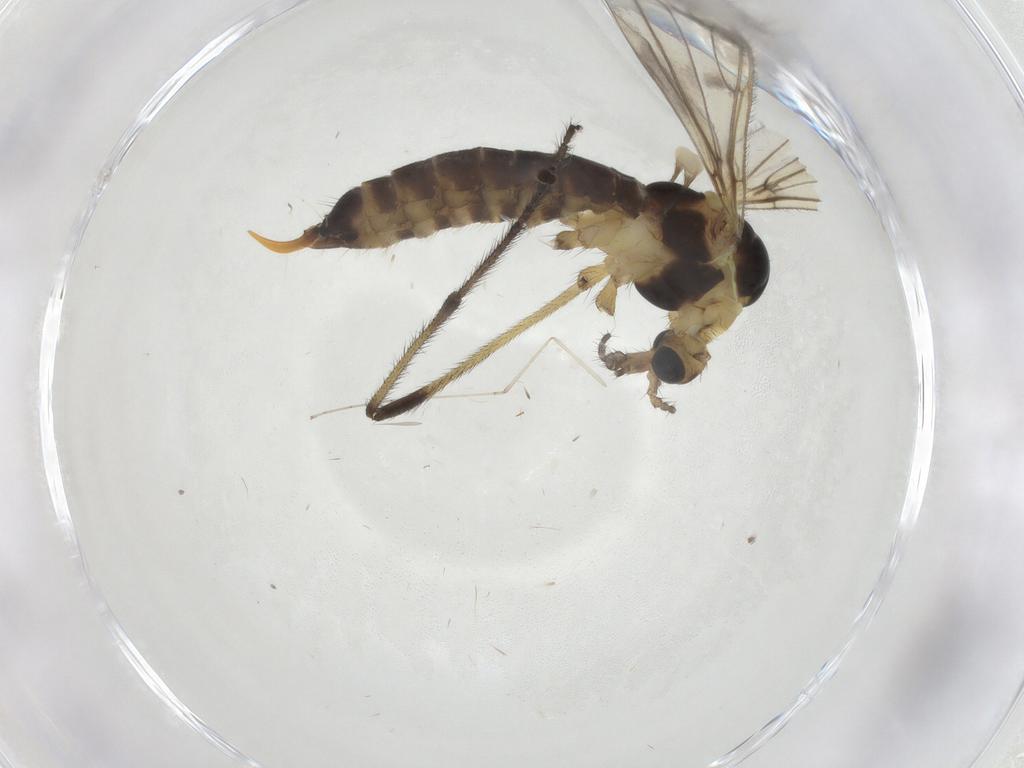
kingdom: Animalia
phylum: Arthropoda
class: Insecta
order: Diptera
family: Limoniidae
